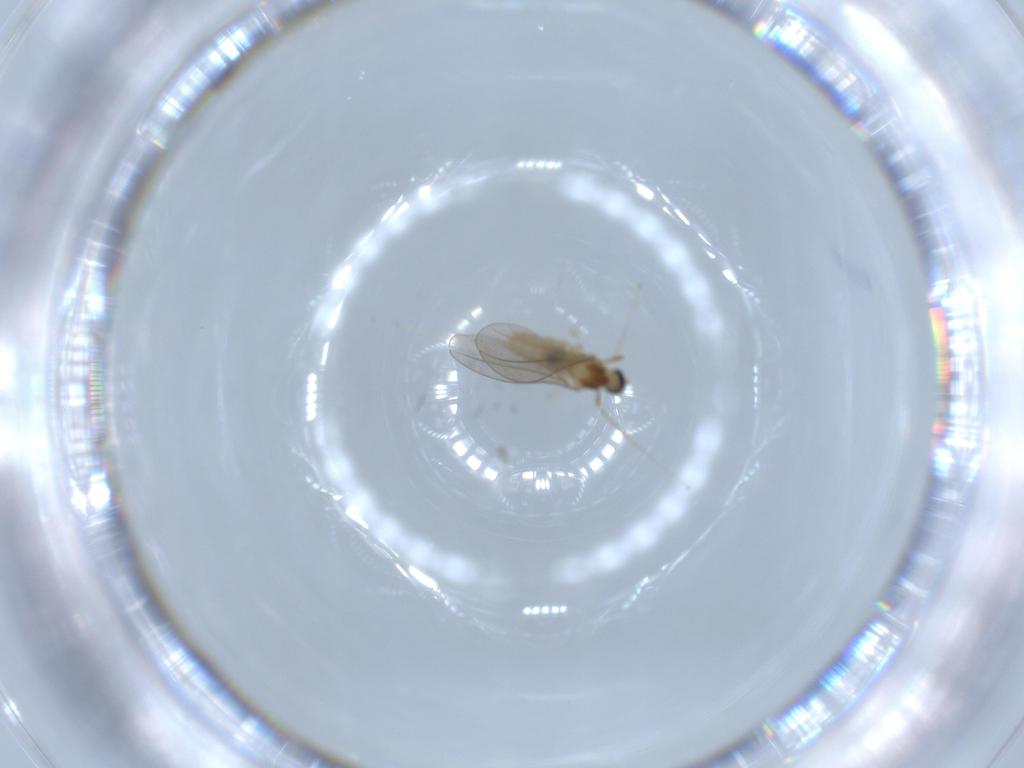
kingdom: Animalia
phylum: Arthropoda
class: Insecta
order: Diptera
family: Cecidomyiidae
